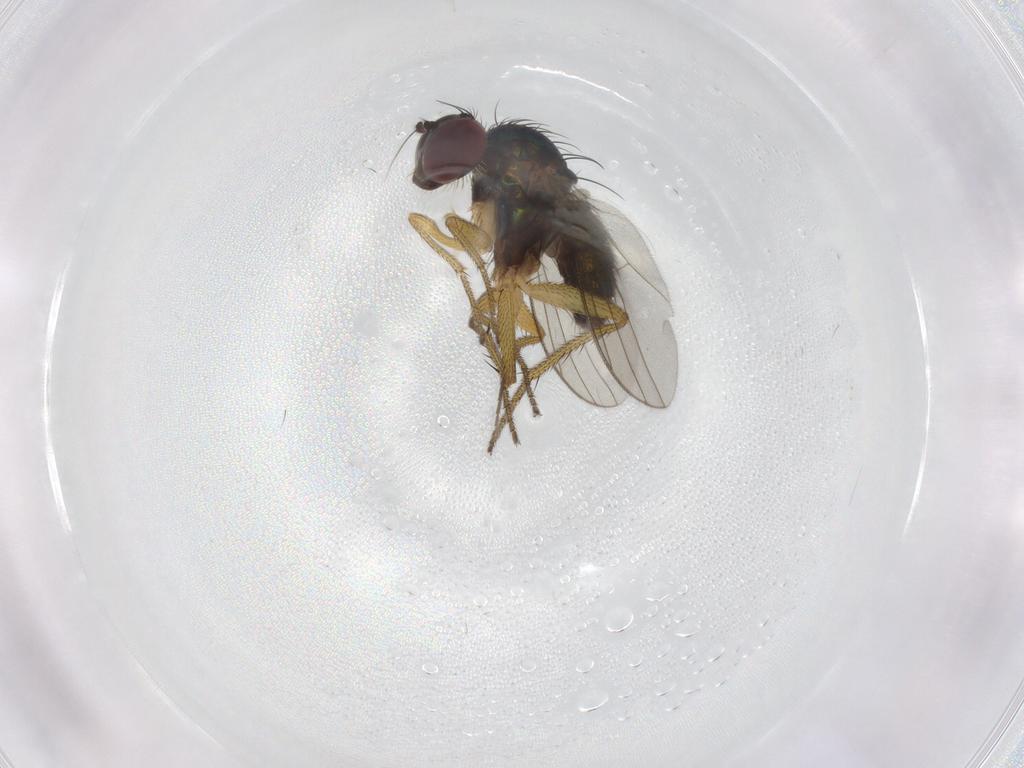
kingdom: Animalia
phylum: Arthropoda
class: Insecta
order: Diptera
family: Dolichopodidae
